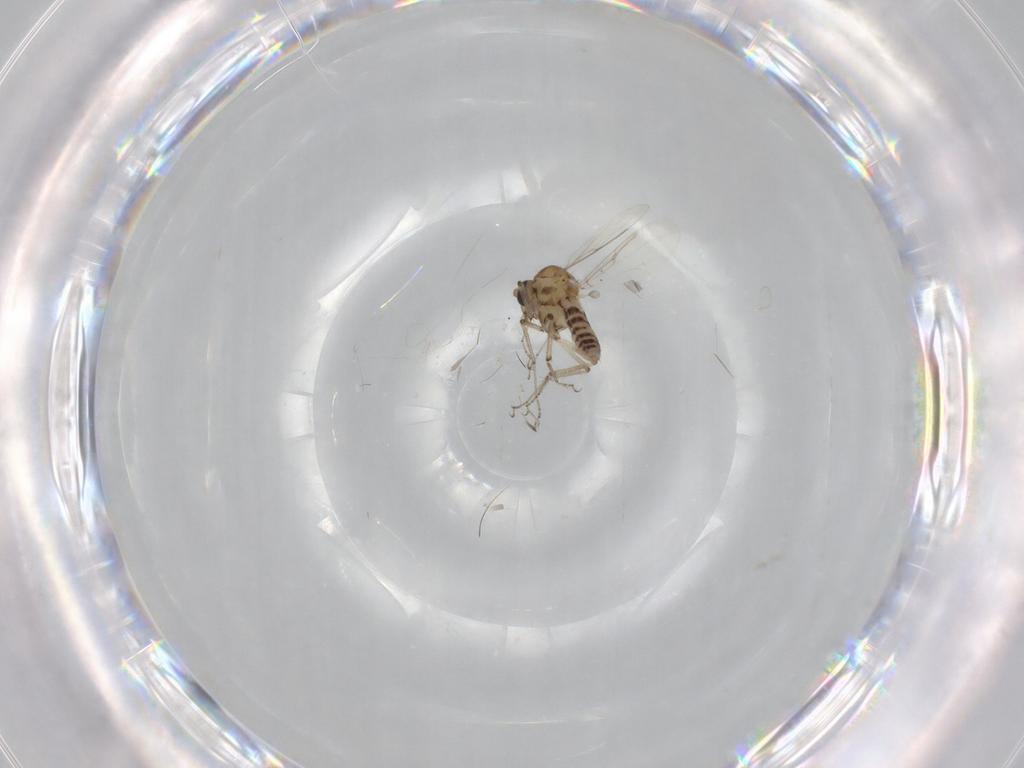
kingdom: Animalia
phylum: Arthropoda
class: Insecta
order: Diptera
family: Ceratopogonidae
